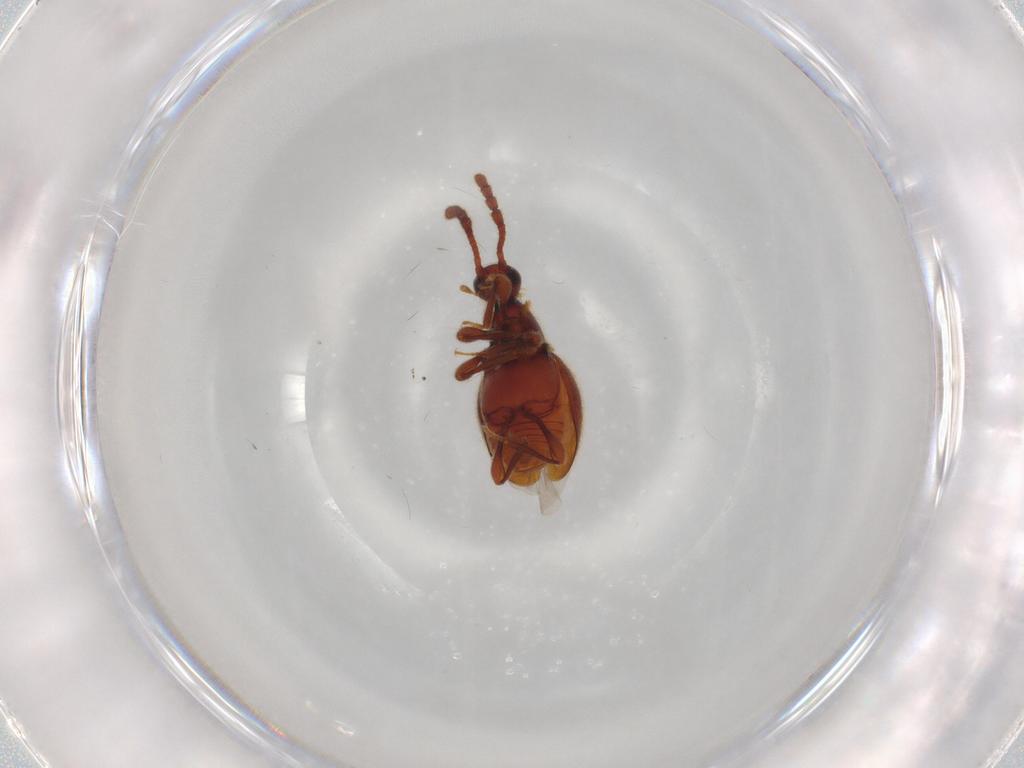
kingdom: Animalia
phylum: Arthropoda
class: Insecta
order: Coleoptera
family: Staphylinidae
